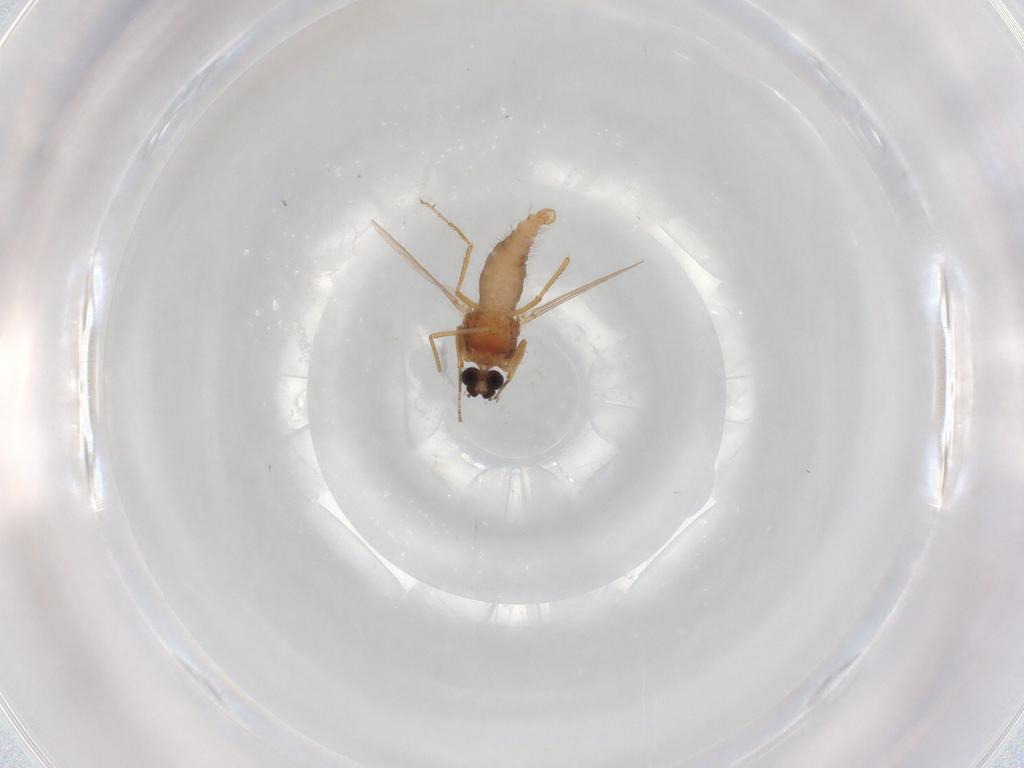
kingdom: Animalia
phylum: Arthropoda
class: Insecta
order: Diptera
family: Ceratopogonidae
